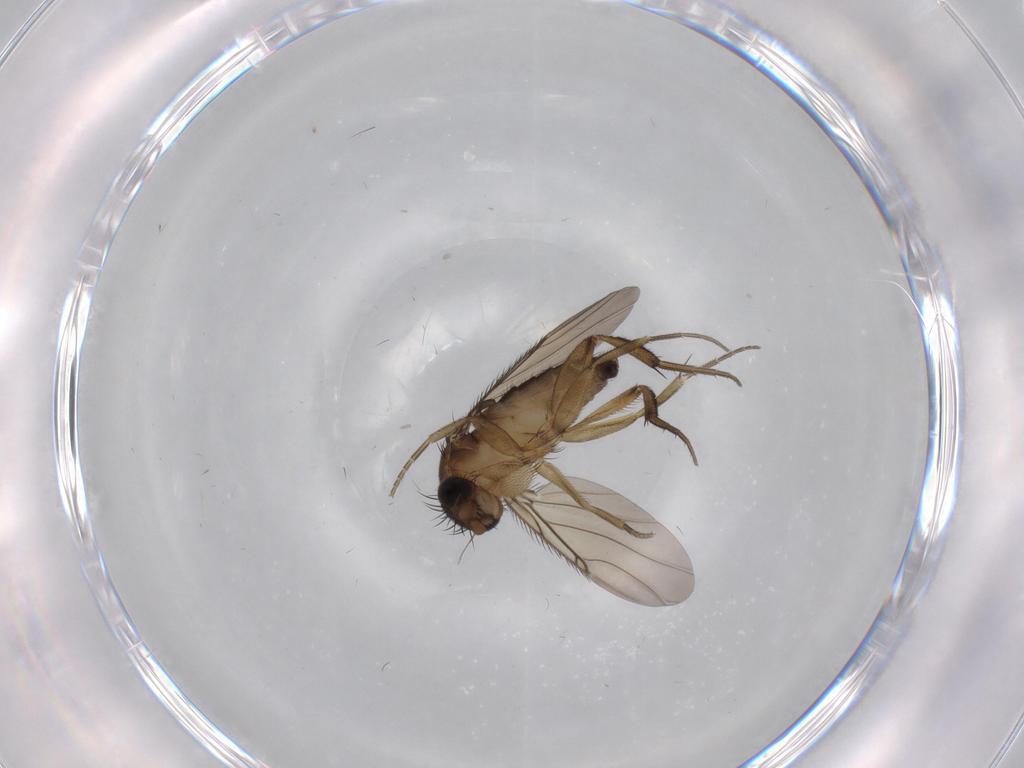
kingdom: Animalia
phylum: Arthropoda
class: Insecta
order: Diptera
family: Phoridae
